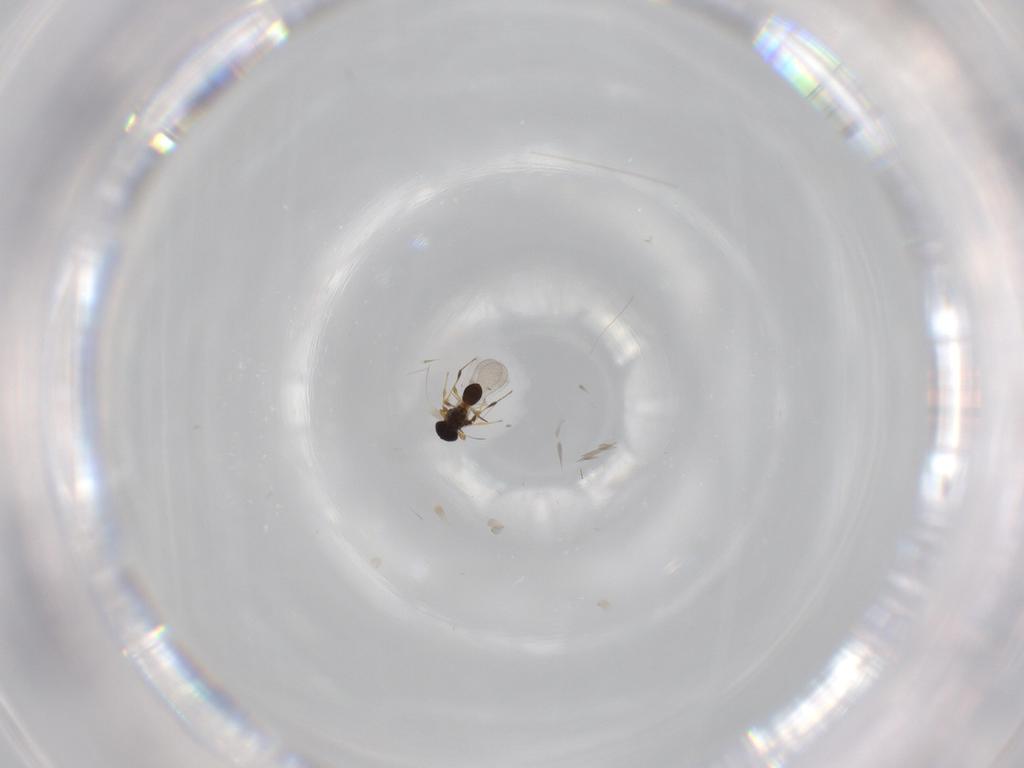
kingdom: Animalia
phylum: Arthropoda
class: Insecta
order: Hymenoptera
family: Platygastridae
